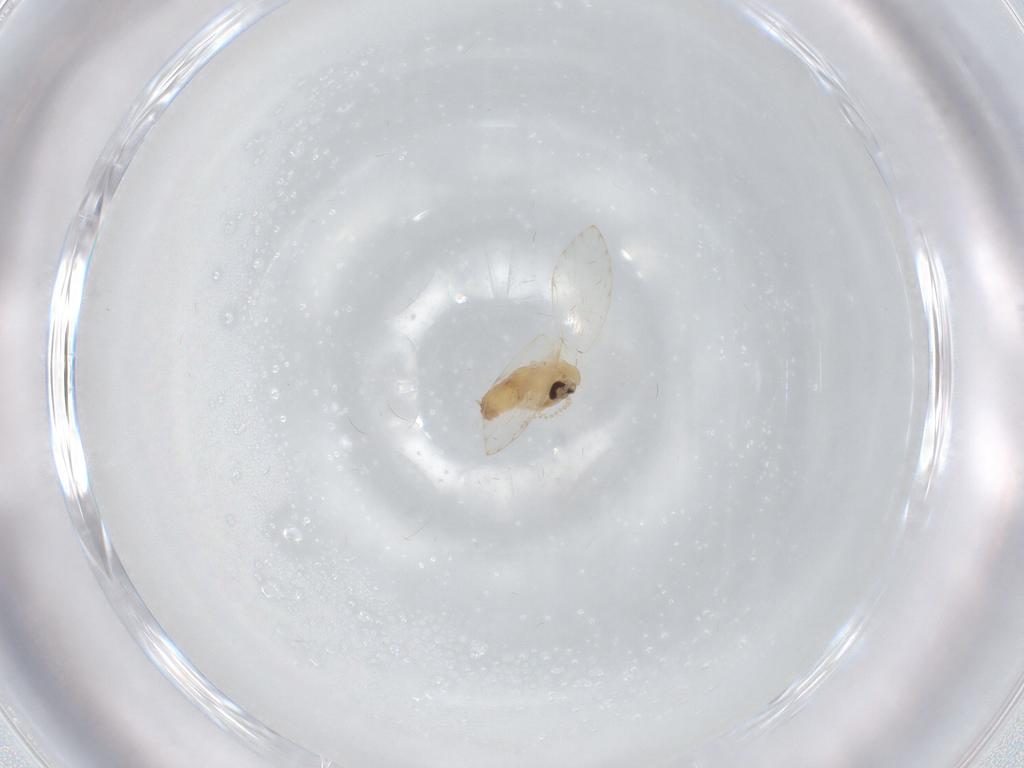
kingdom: Animalia
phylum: Arthropoda
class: Insecta
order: Diptera
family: Psychodidae
